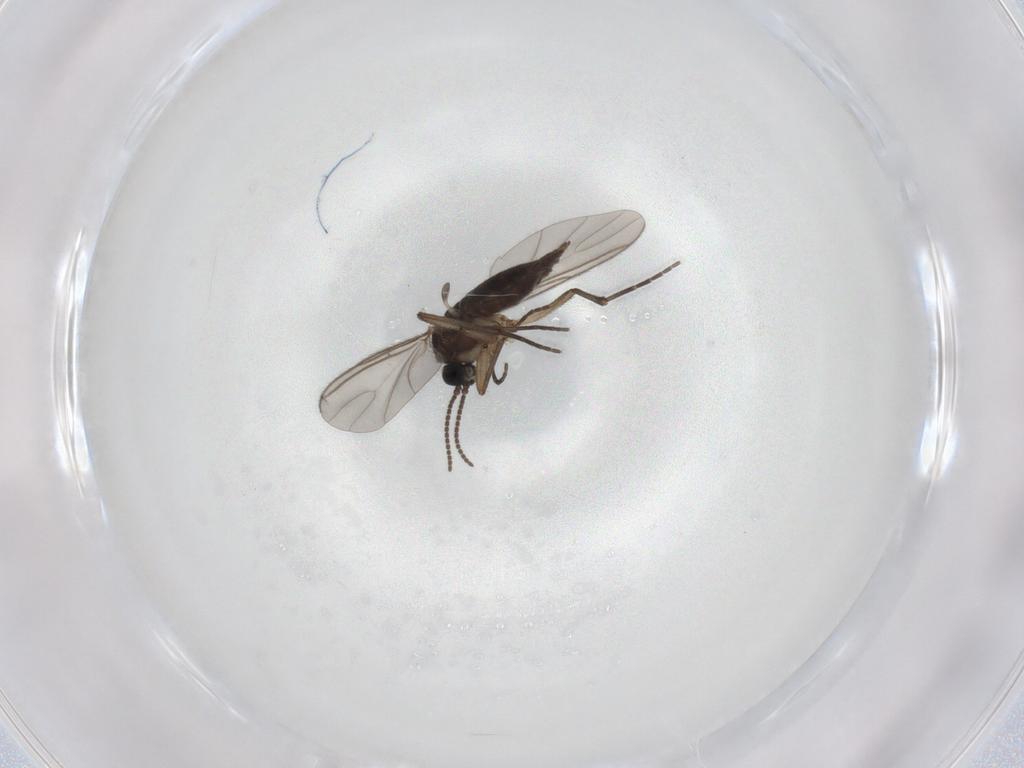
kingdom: Animalia
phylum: Arthropoda
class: Insecta
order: Diptera
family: Sciaridae
